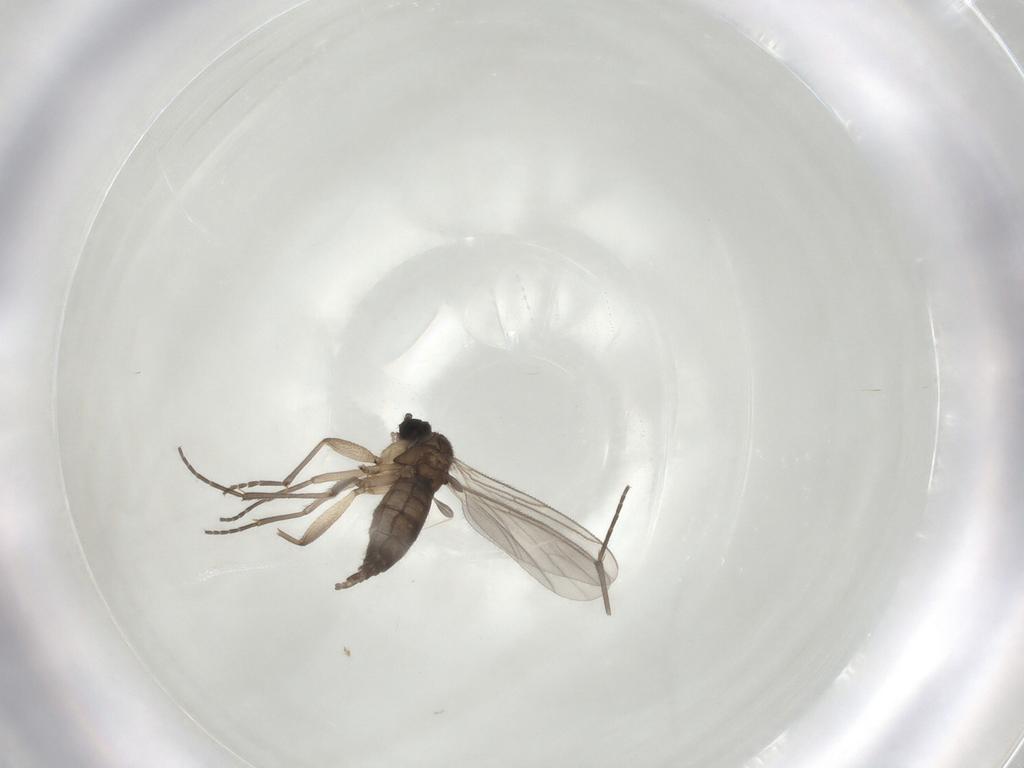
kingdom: Animalia
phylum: Arthropoda
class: Insecta
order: Diptera
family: Sciaridae
